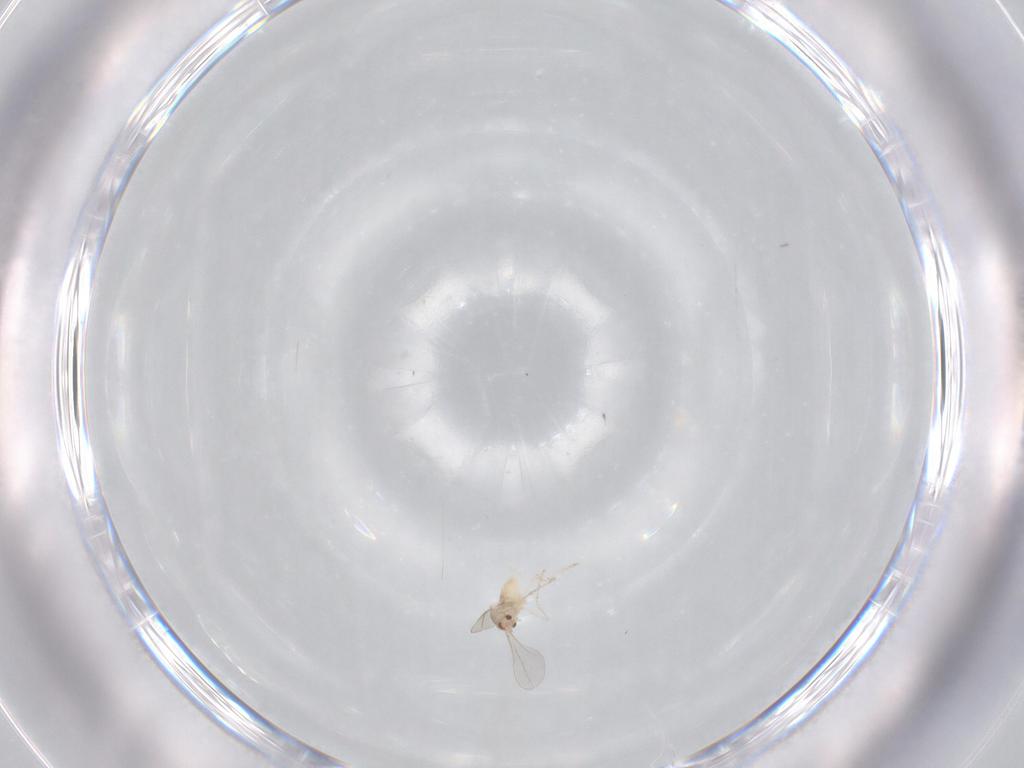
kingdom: Animalia
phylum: Arthropoda
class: Insecta
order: Diptera
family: Cecidomyiidae
